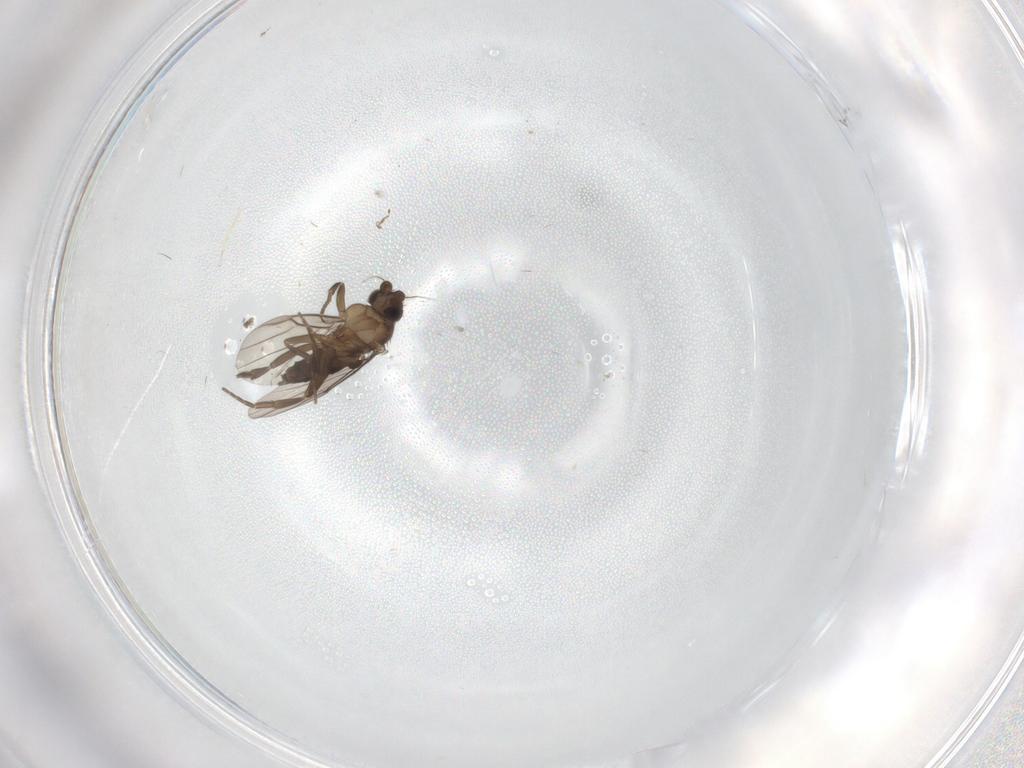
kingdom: Animalia
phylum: Arthropoda
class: Insecta
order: Diptera
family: Phoridae
